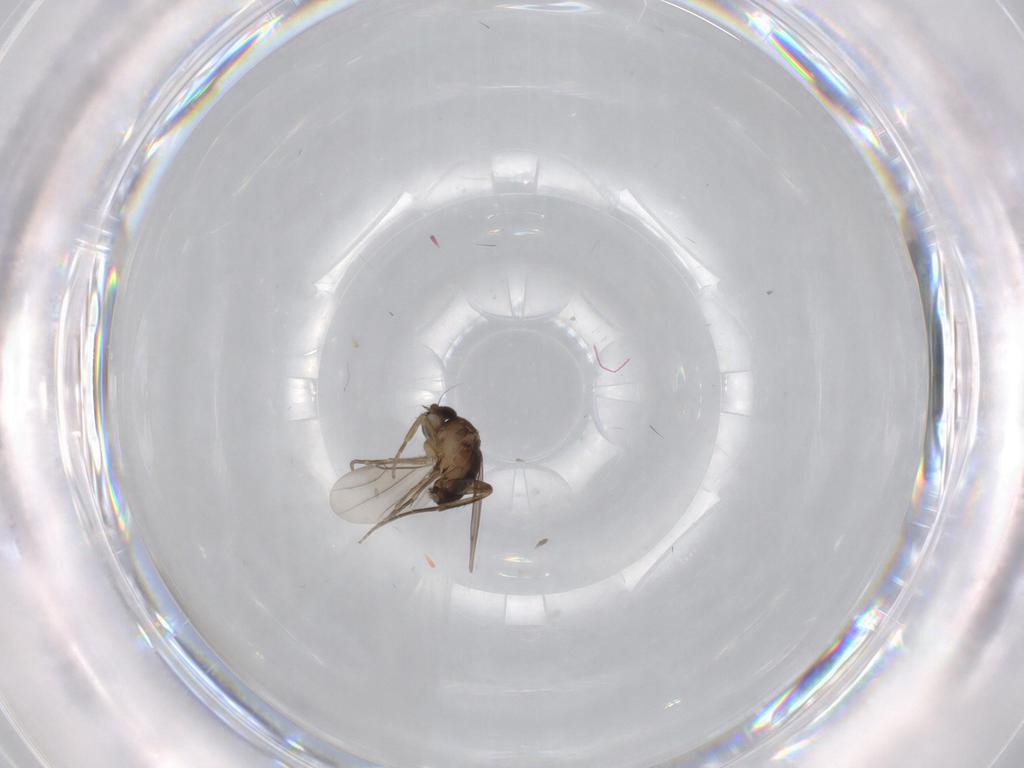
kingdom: Animalia
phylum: Arthropoda
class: Insecta
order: Diptera
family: Phoridae
